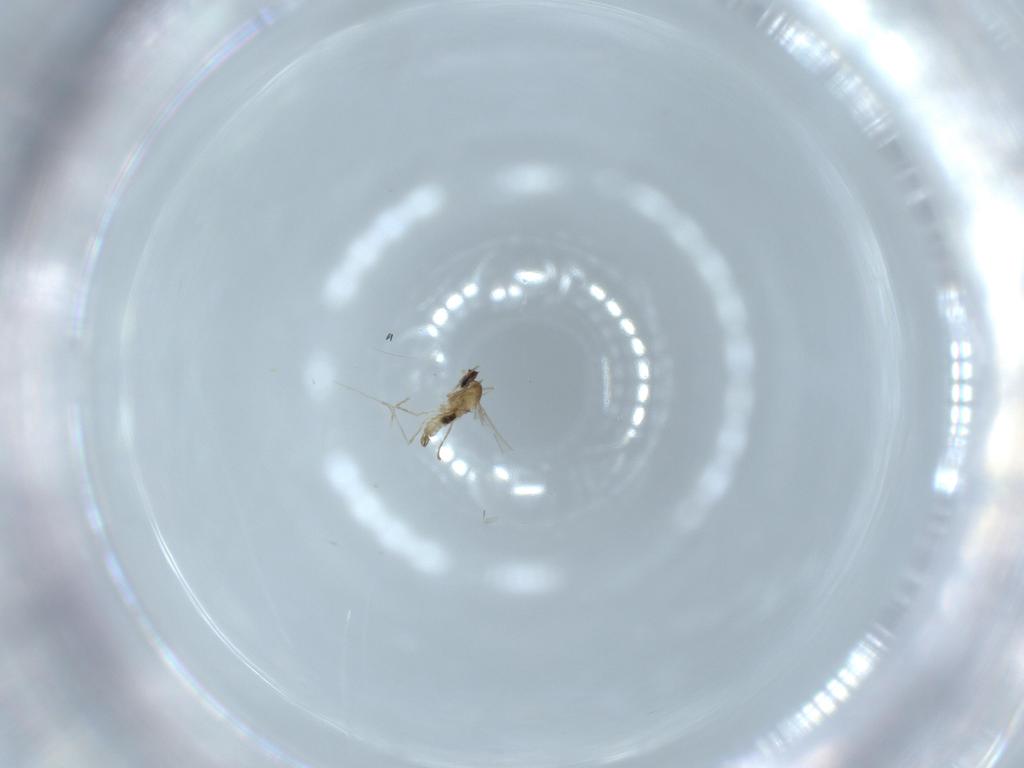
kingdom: Animalia
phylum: Arthropoda
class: Insecta
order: Diptera
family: Cecidomyiidae
